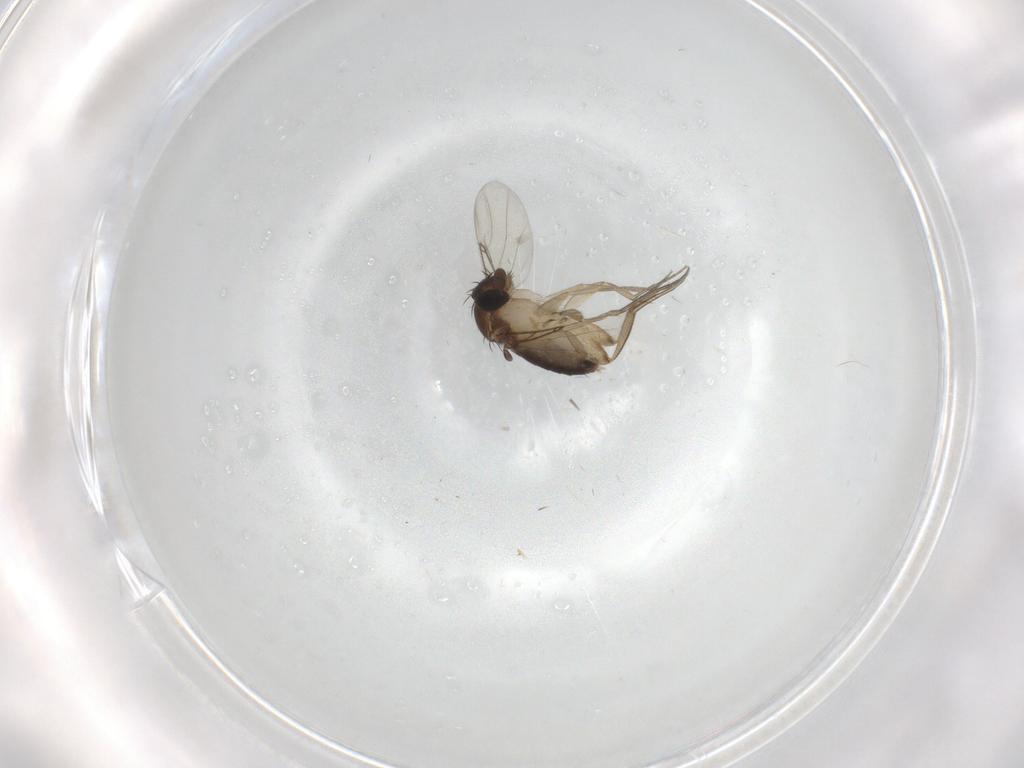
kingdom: Animalia
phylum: Arthropoda
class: Insecta
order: Diptera
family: Phoridae
